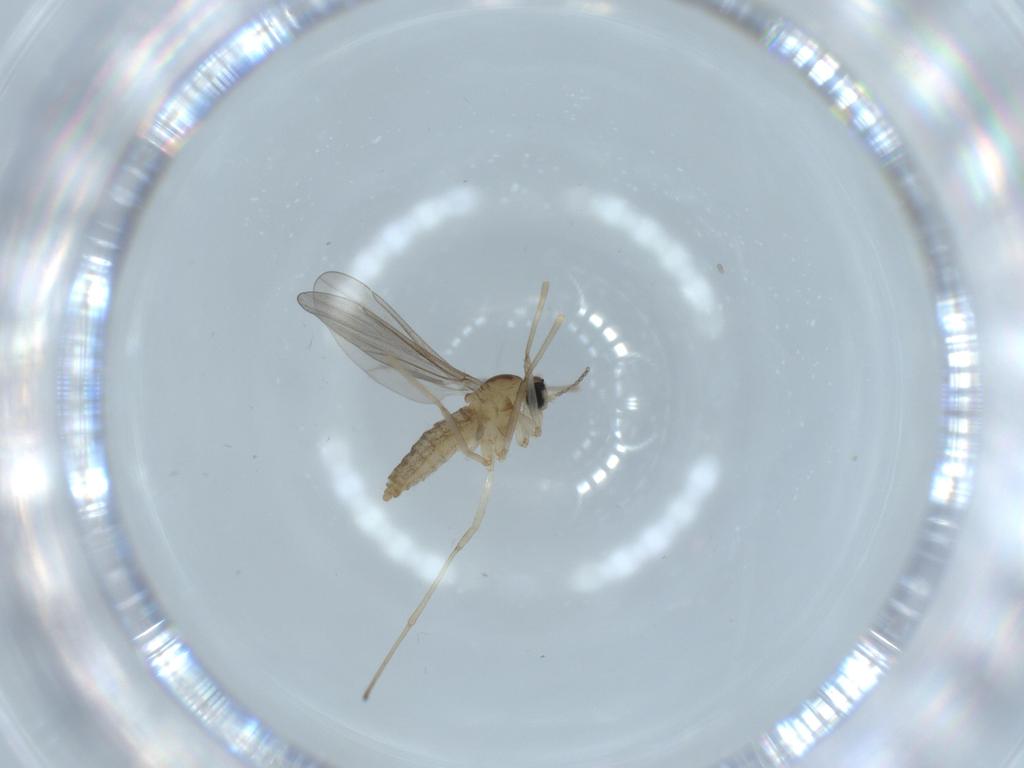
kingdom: Animalia
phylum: Arthropoda
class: Insecta
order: Diptera
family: Cecidomyiidae
